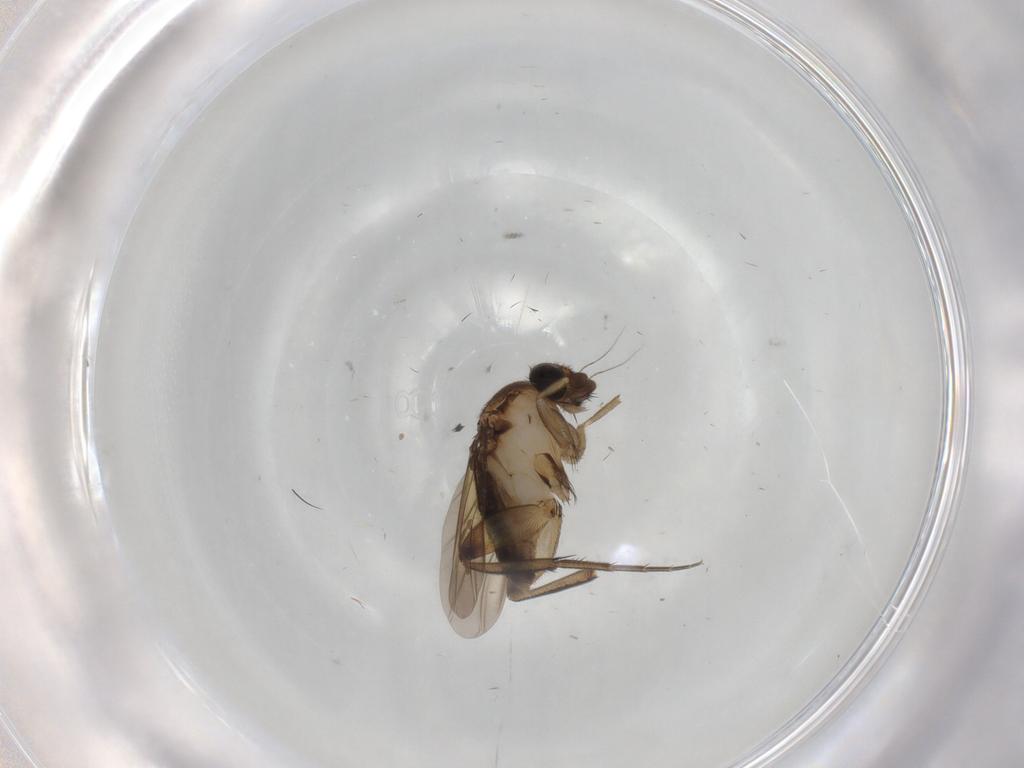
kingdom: Animalia
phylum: Arthropoda
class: Insecta
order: Diptera
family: Phoridae
